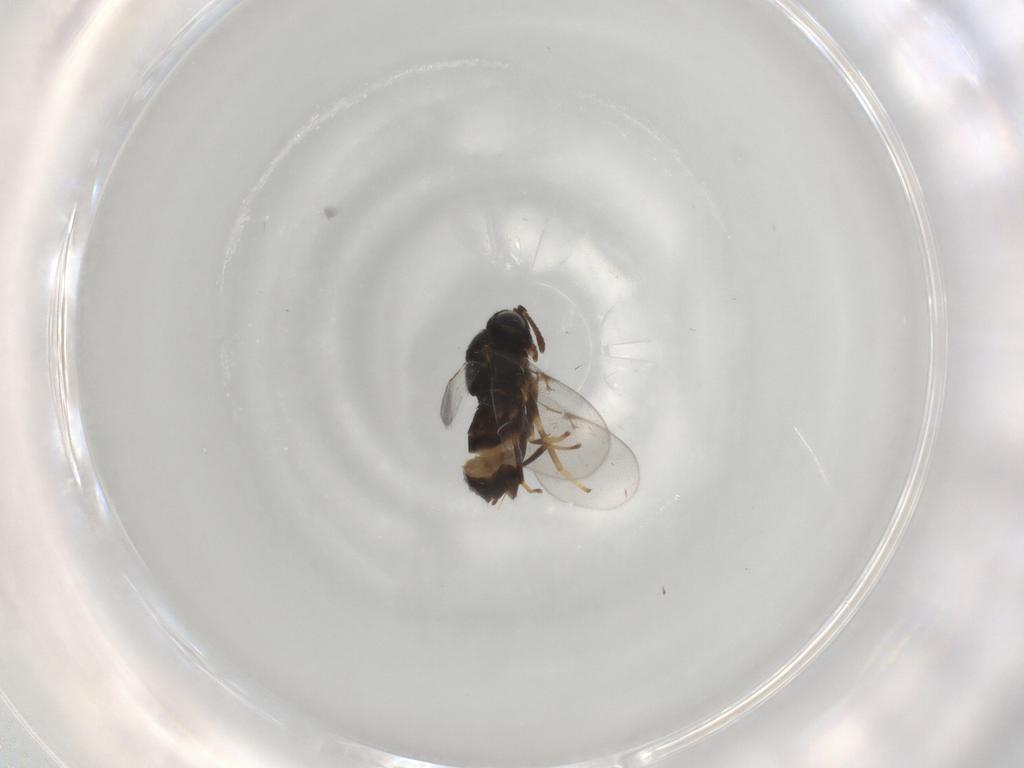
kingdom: Animalia
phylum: Arthropoda
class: Insecta
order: Hymenoptera
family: Encyrtidae
